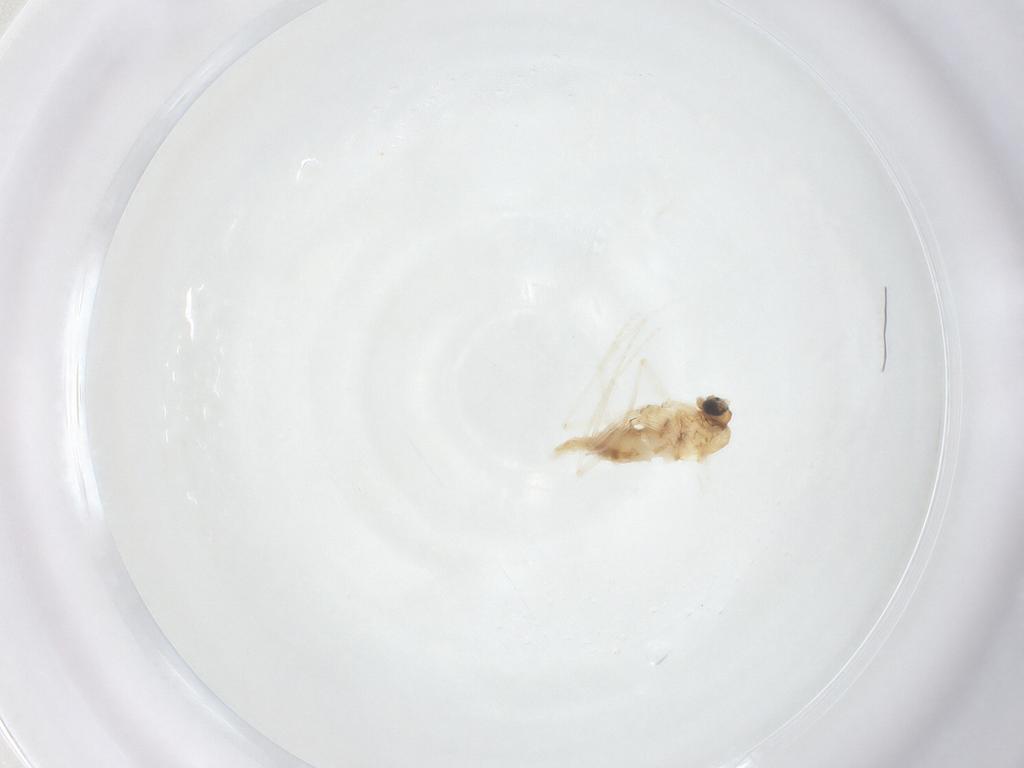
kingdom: Animalia
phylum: Arthropoda
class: Insecta
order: Diptera
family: Sciaridae
